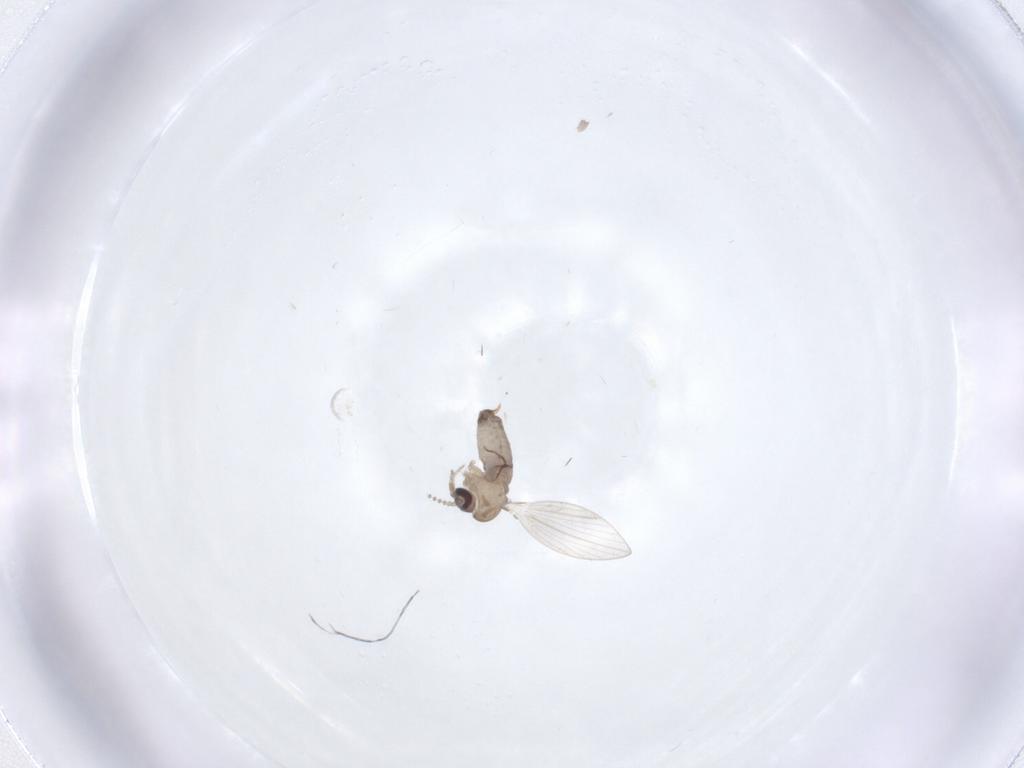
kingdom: Animalia
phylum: Arthropoda
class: Insecta
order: Diptera
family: Psychodidae
